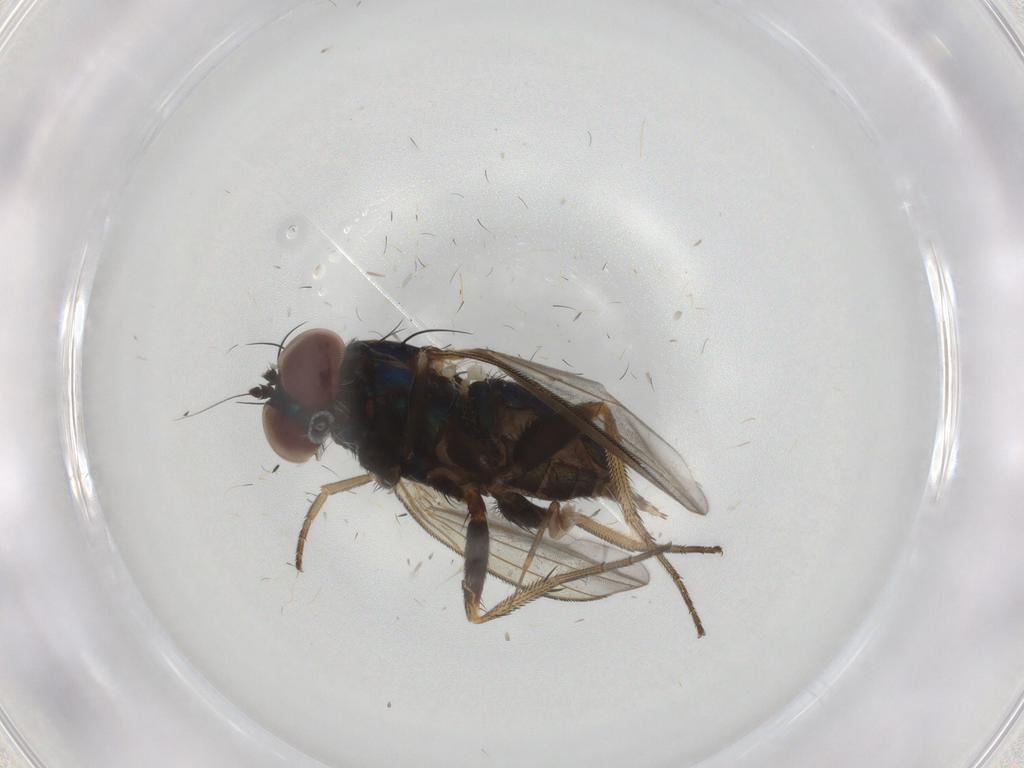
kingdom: Animalia
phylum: Arthropoda
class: Insecta
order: Diptera
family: Dolichopodidae
